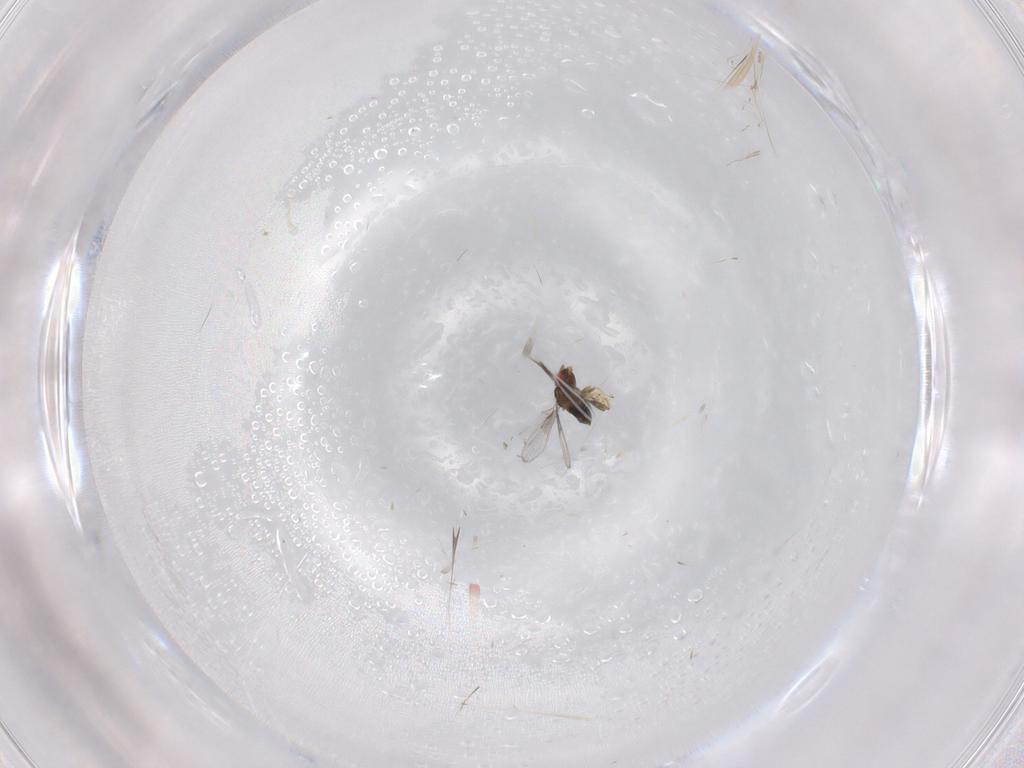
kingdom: Animalia
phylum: Arthropoda
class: Insecta
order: Hymenoptera
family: Trichogrammatidae
